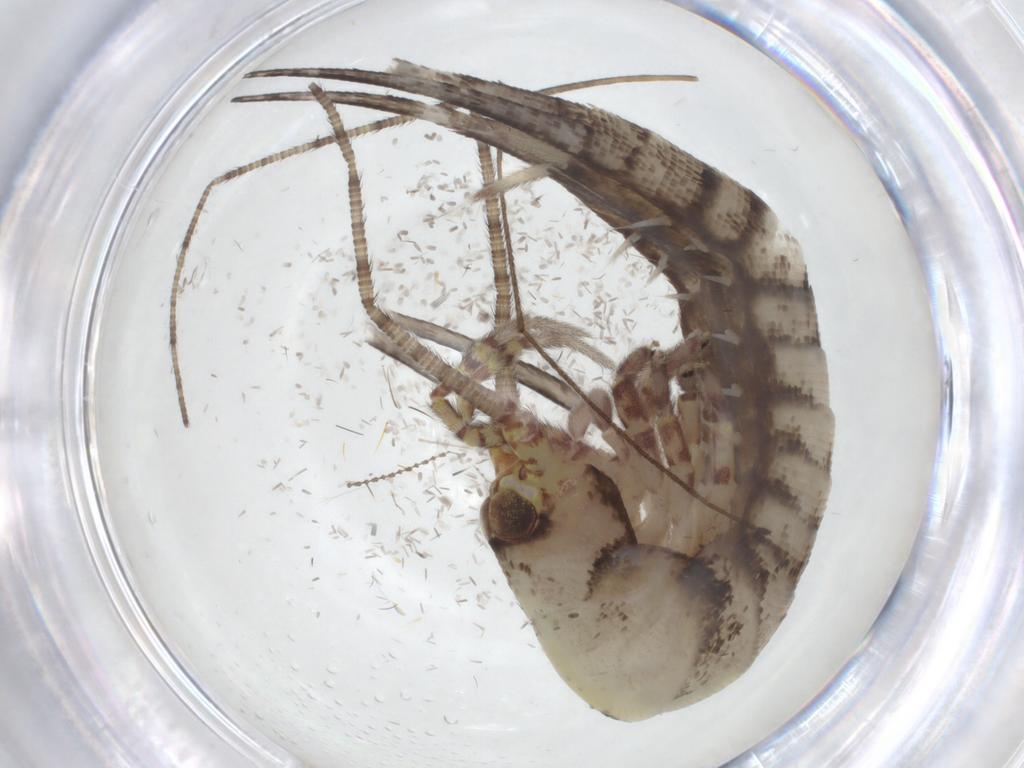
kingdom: Animalia
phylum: Arthropoda
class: Insecta
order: Archaeognatha
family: Machilidae
